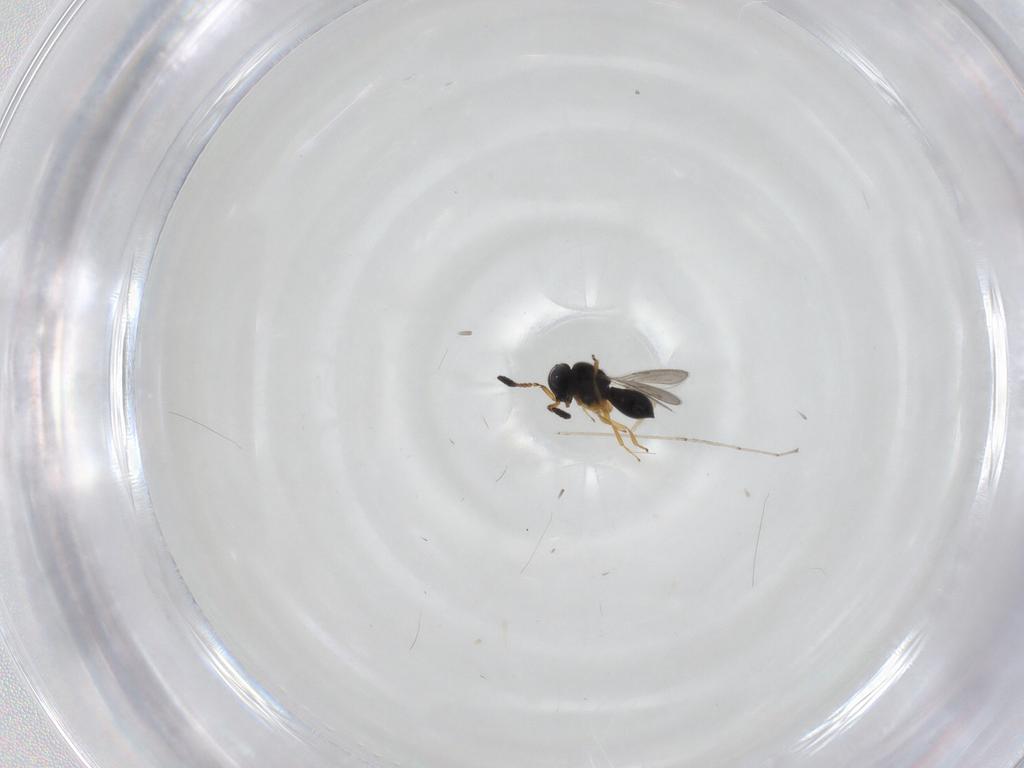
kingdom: Animalia
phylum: Arthropoda
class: Insecta
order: Hymenoptera
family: Scelionidae
